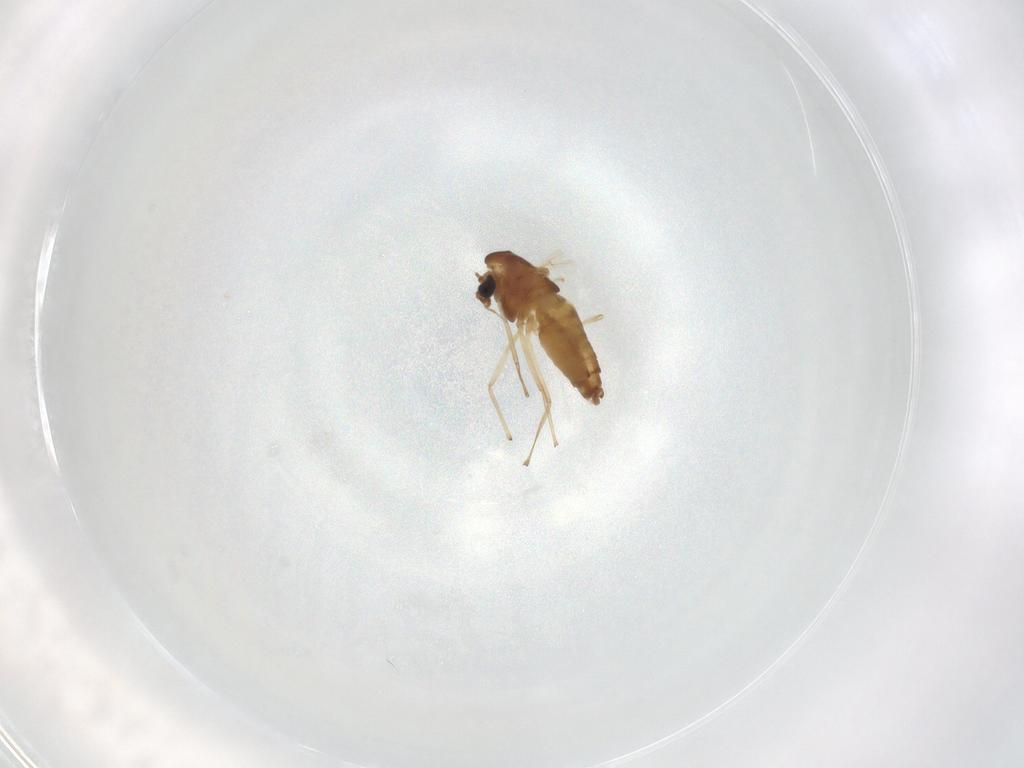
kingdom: Animalia
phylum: Arthropoda
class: Insecta
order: Diptera
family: Chironomidae
